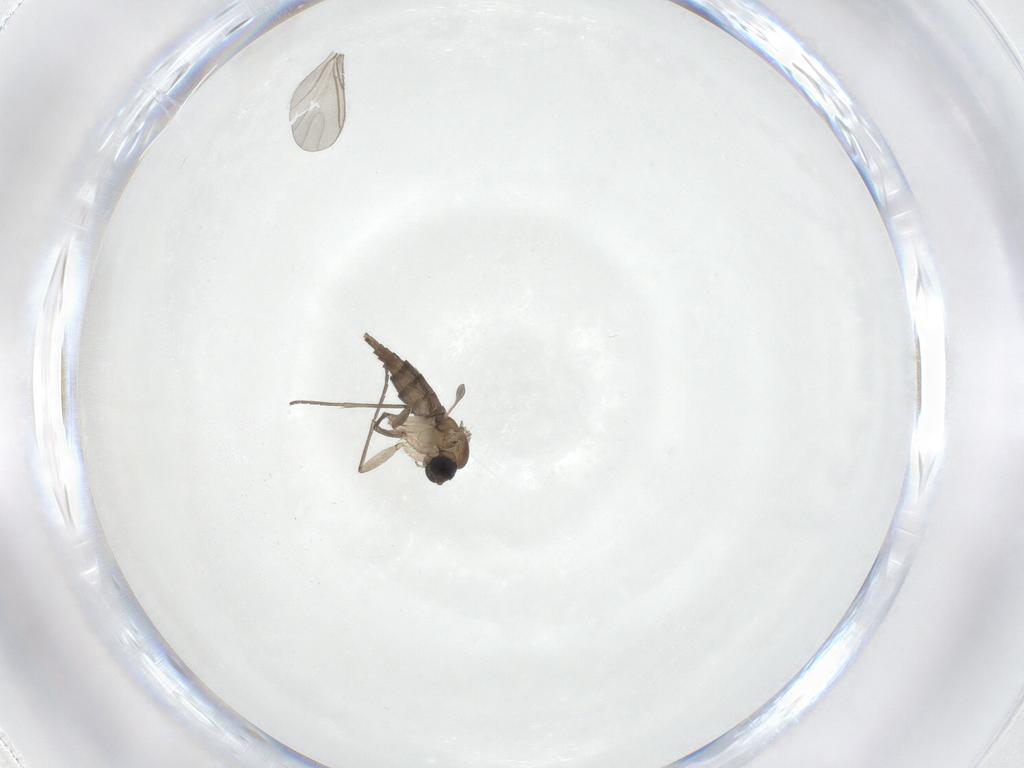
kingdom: Animalia
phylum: Arthropoda
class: Insecta
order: Diptera
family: Sciaridae
